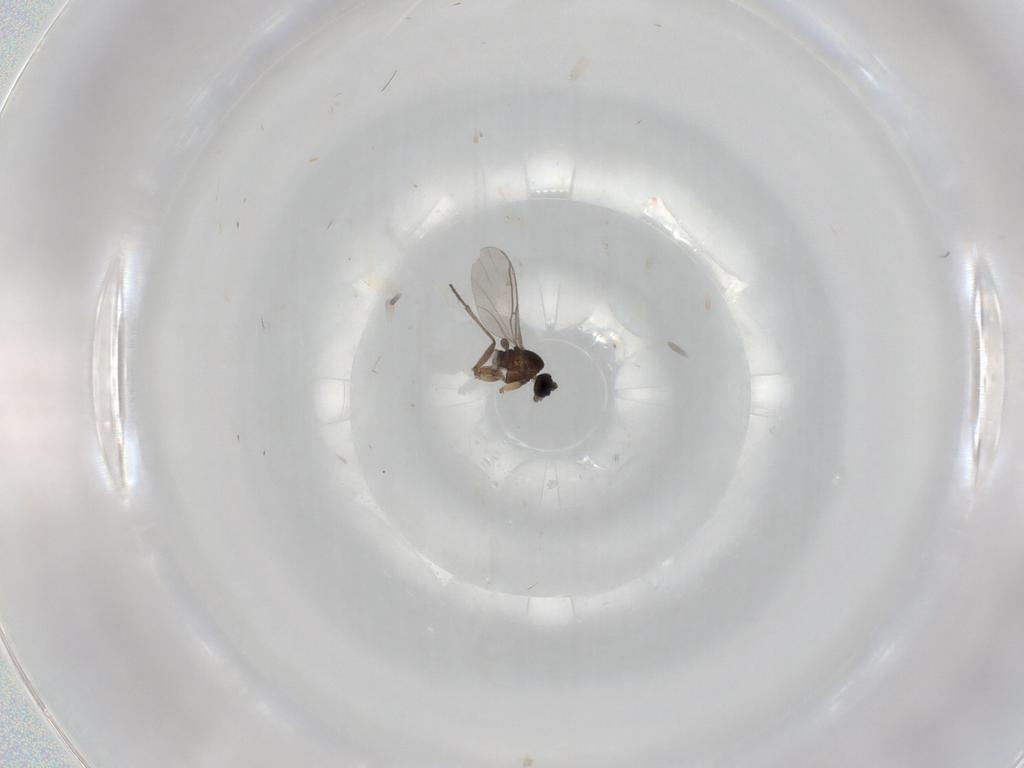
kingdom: Animalia
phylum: Arthropoda
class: Insecta
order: Diptera
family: Sciaridae
